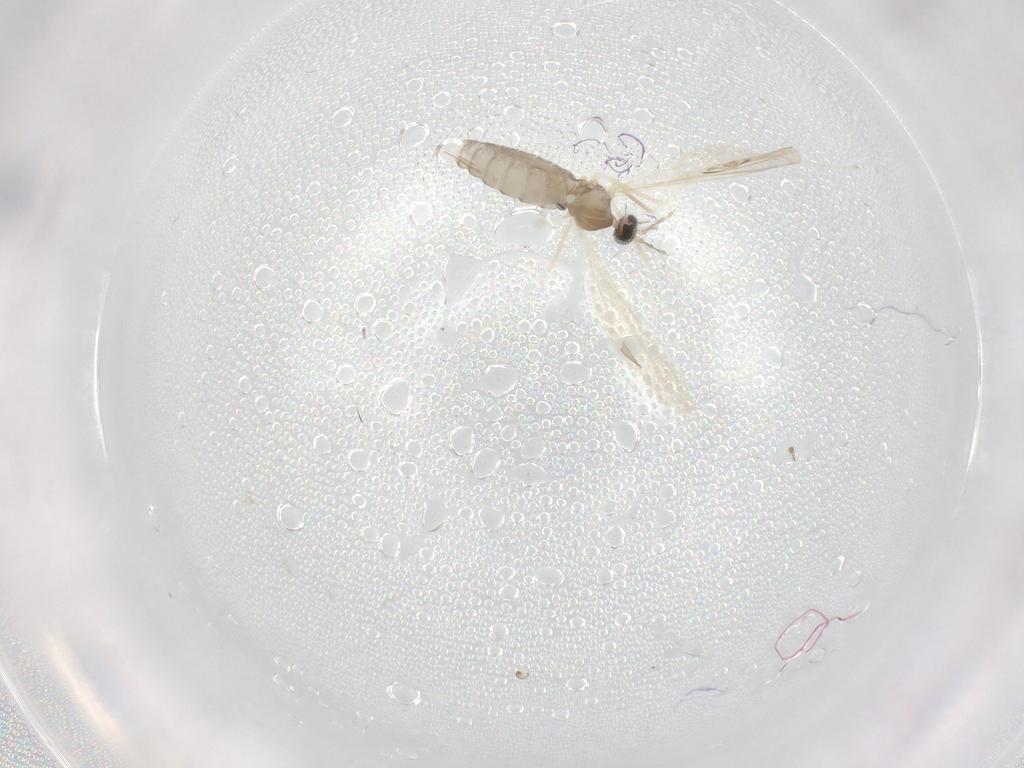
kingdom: Animalia
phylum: Arthropoda
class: Insecta
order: Diptera
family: Cecidomyiidae
